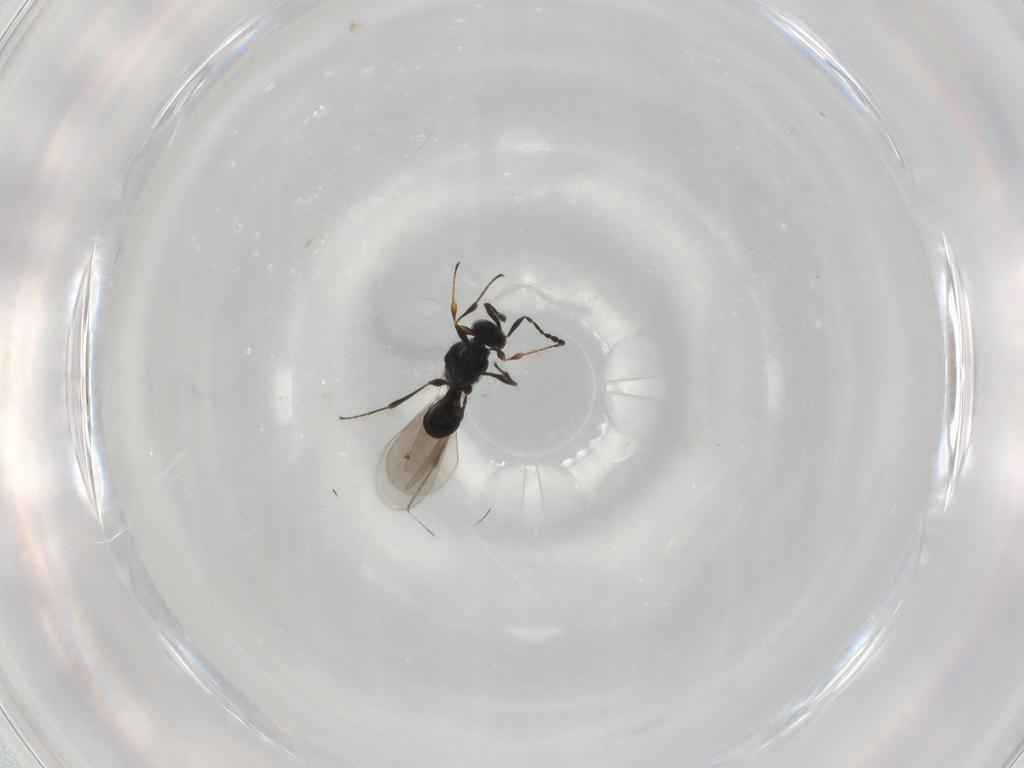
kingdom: Animalia
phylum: Arthropoda
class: Insecta
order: Hymenoptera
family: Platygastridae
